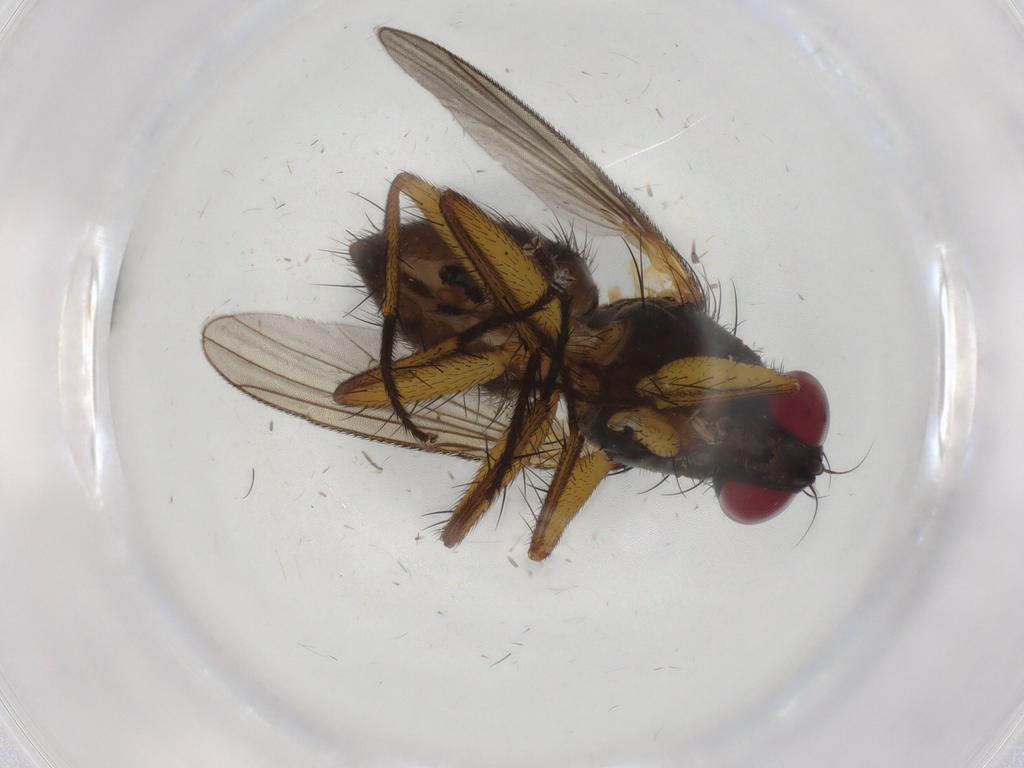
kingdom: Animalia
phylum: Arthropoda
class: Insecta
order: Diptera
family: Muscidae
